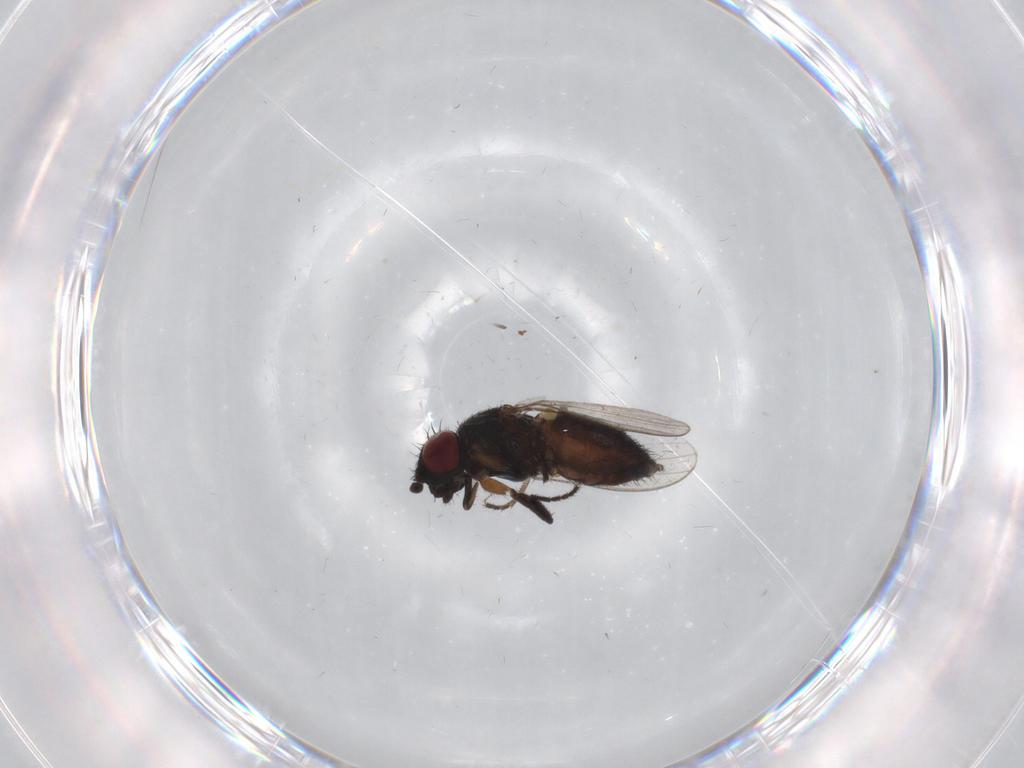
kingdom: Animalia
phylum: Arthropoda
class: Insecta
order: Diptera
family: Milichiidae
